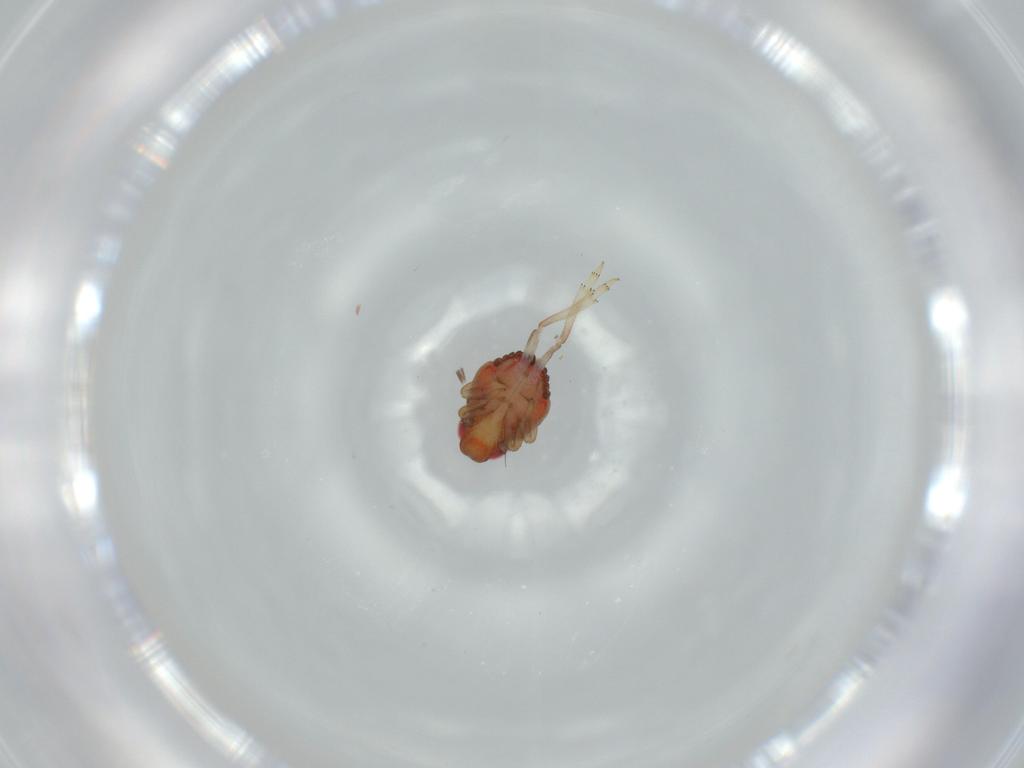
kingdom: Animalia
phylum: Arthropoda
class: Insecta
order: Hemiptera
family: Issidae
